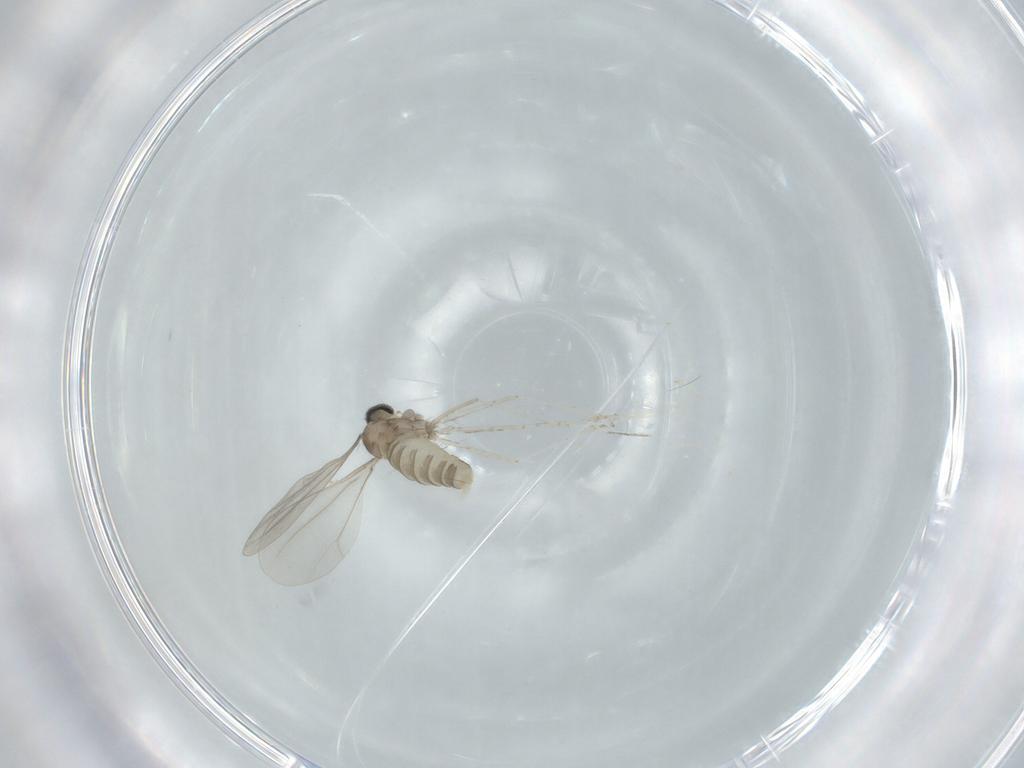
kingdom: Animalia
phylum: Arthropoda
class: Insecta
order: Diptera
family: Cecidomyiidae
